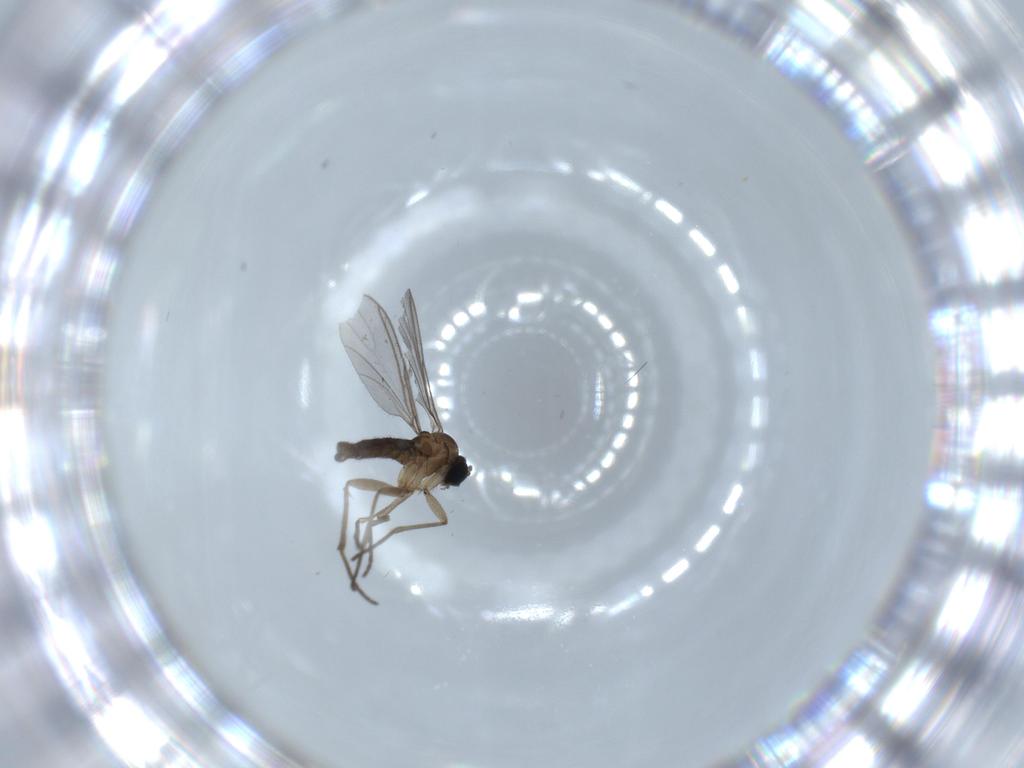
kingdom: Animalia
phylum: Arthropoda
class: Insecta
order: Diptera
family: Sciaridae
